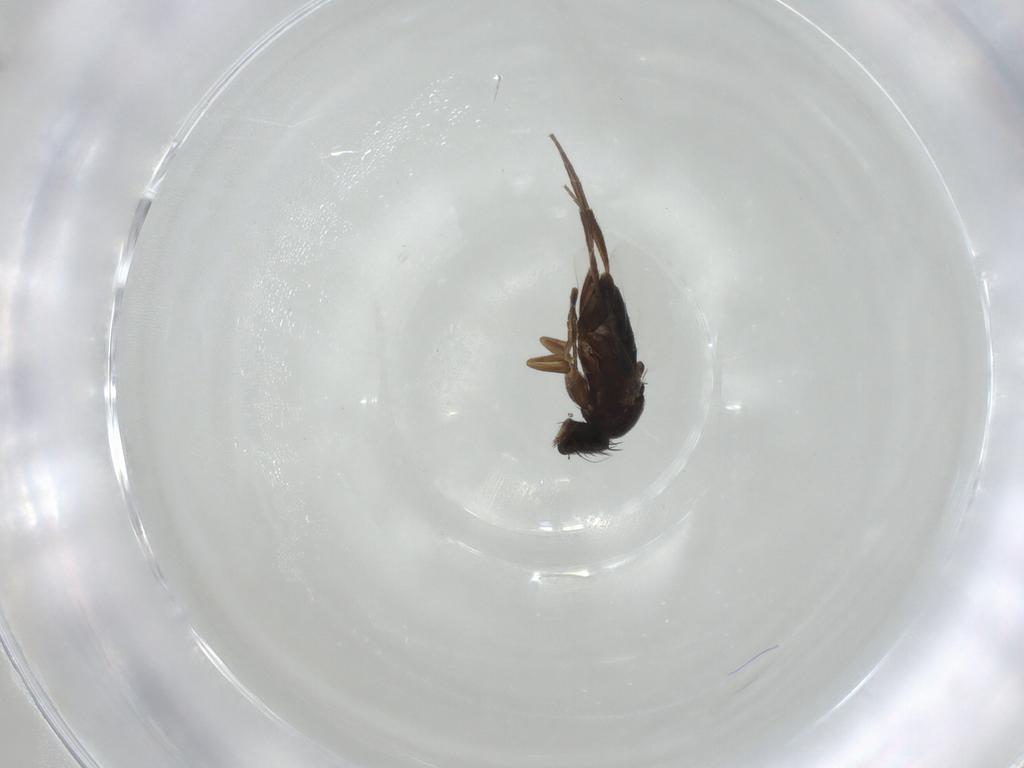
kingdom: Animalia
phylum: Arthropoda
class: Insecta
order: Diptera
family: Phoridae
